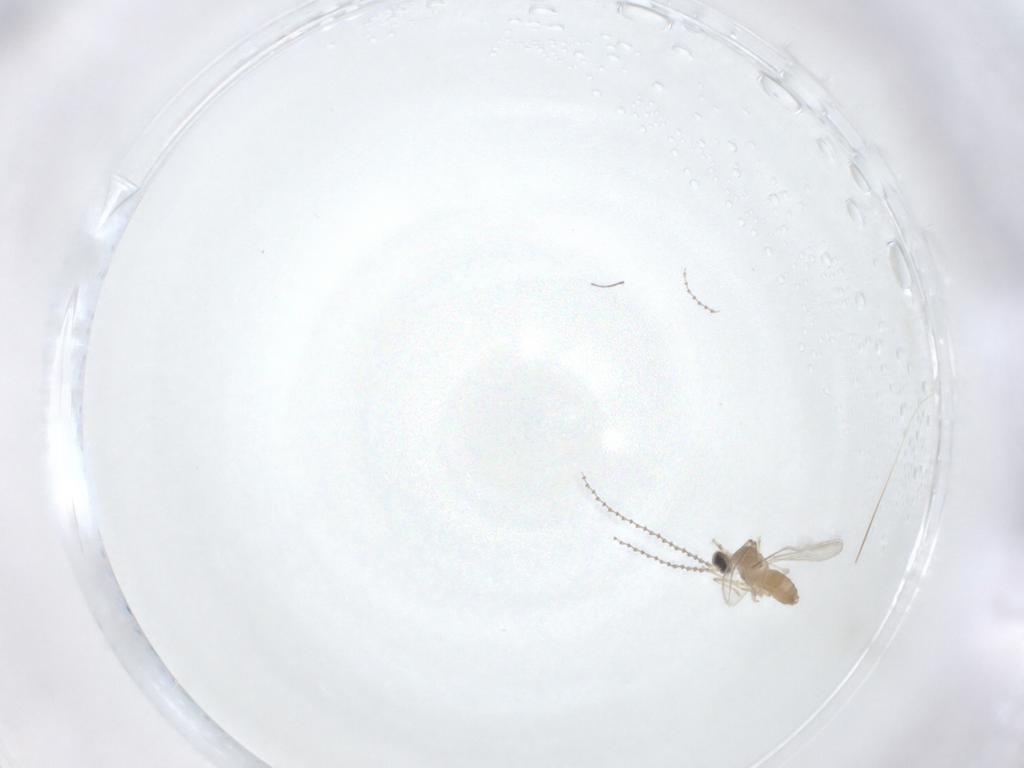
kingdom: Animalia
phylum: Arthropoda
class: Insecta
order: Diptera
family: Cecidomyiidae
